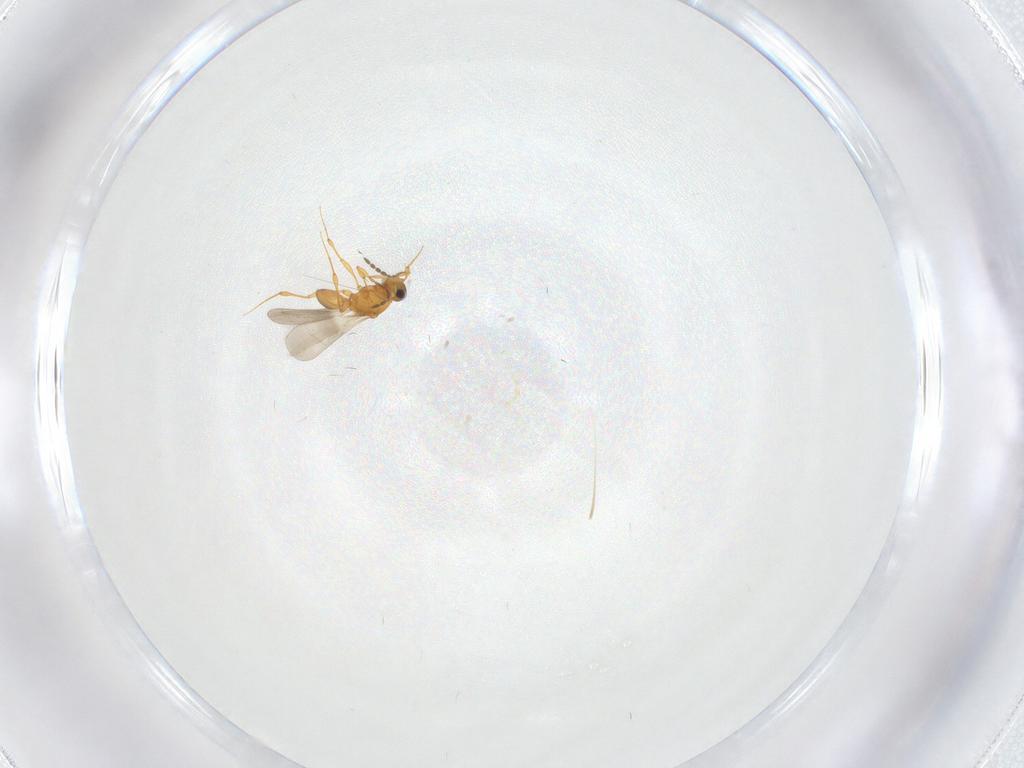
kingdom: Animalia
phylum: Arthropoda
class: Insecta
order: Hymenoptera
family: Platygastridae
